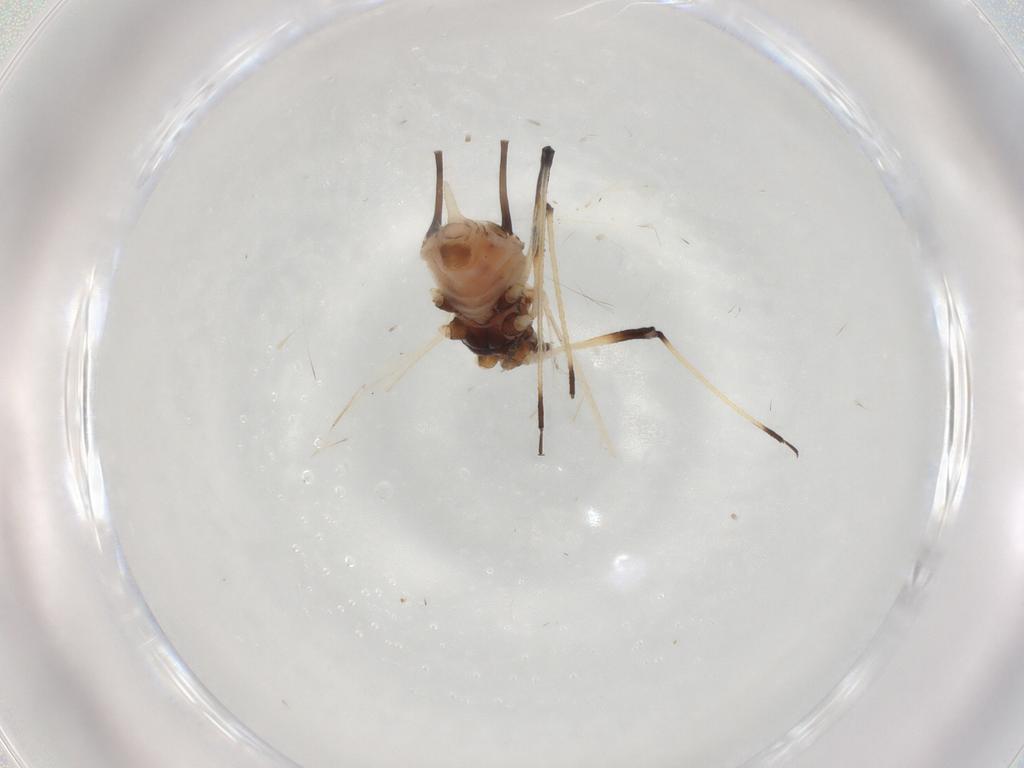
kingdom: Animalia
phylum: Arthropoda
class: Insecta
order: Hemiptera
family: Aphididae
